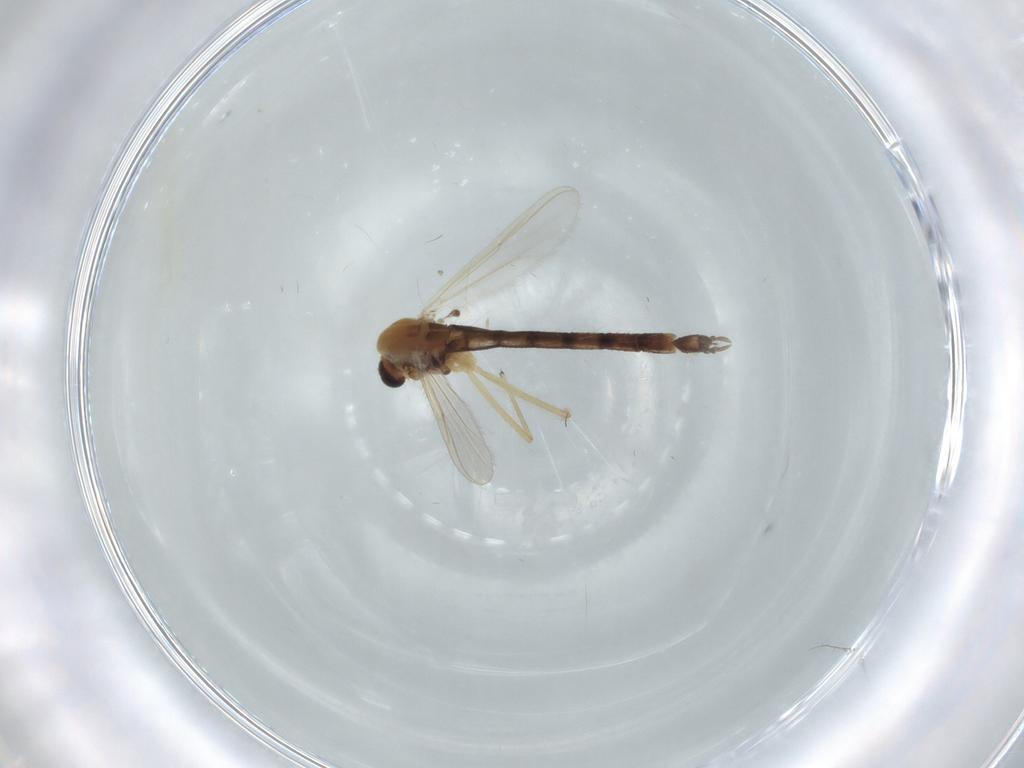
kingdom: Animalia
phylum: Arthropoda
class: Insecta
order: Diptera
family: Chironomidae
